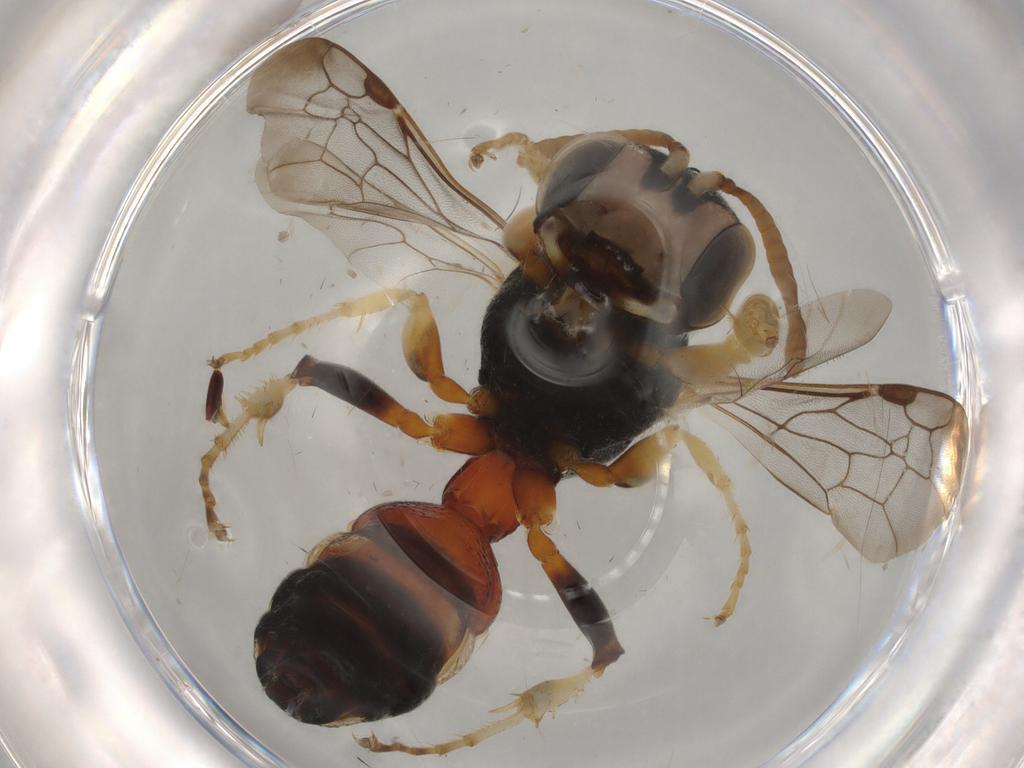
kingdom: Animalia
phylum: Arthropoda
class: Insecta
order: Hymenoptera
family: Crabronidae
